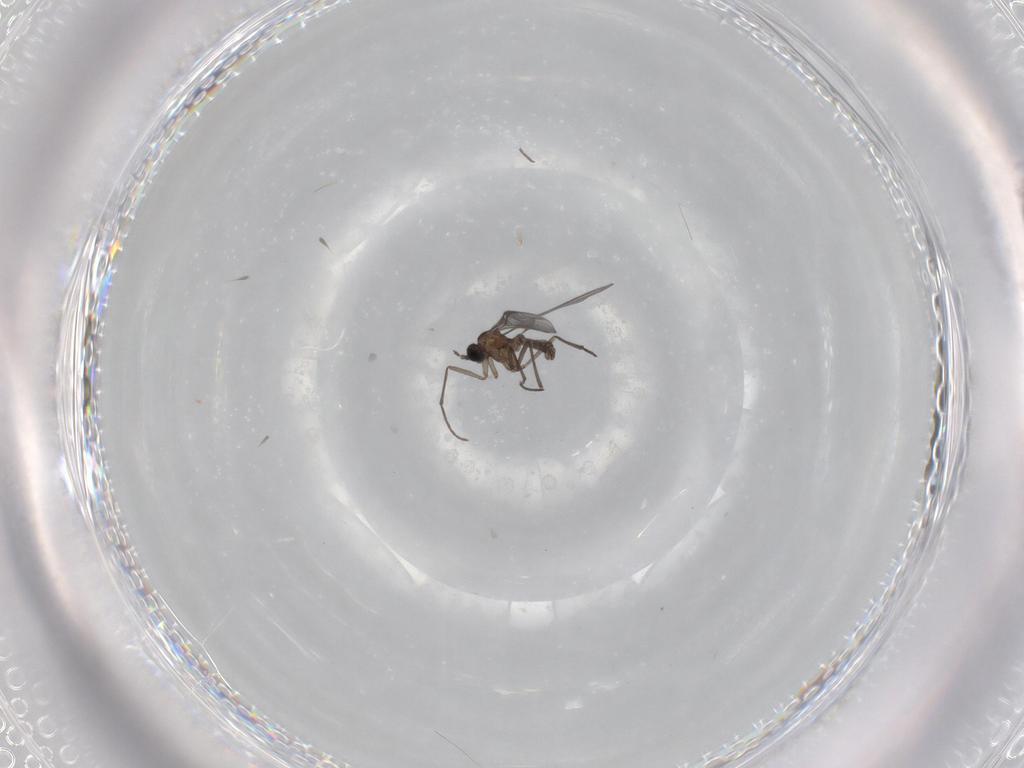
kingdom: Animalia
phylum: Arthropoda
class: Insecta
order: Diptera
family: Sciaridae
